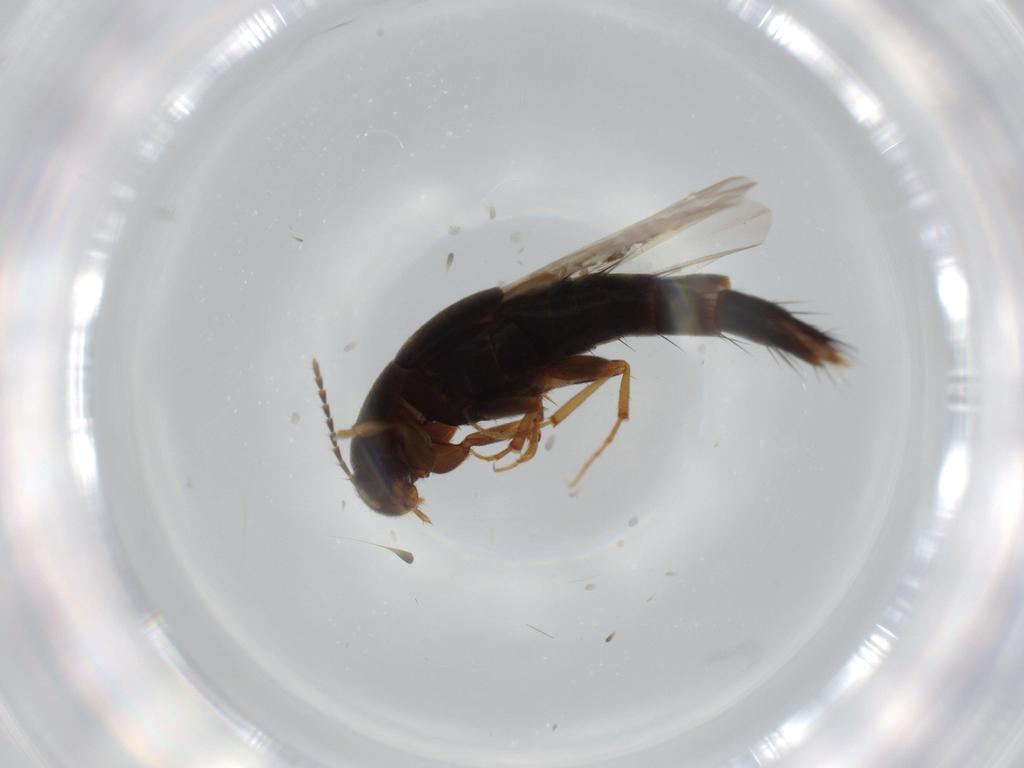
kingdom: Animalia
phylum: Arthropoda
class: Insecta
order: Coleoptera
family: Staphylinidae
